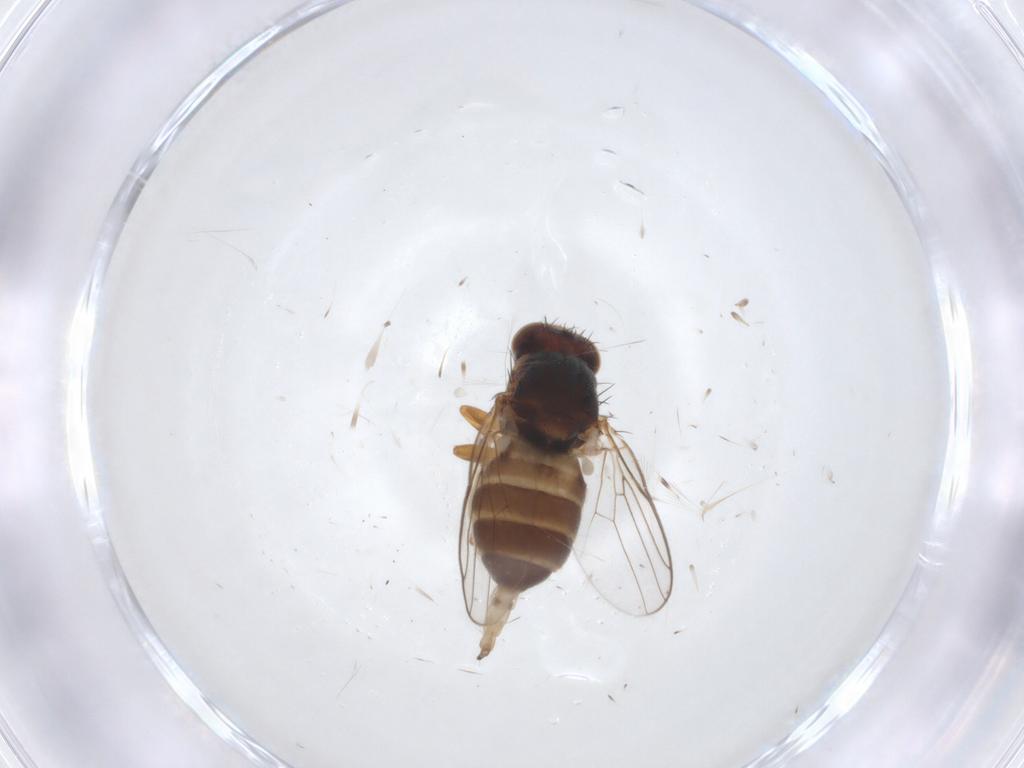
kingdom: Animalia
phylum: Arthropoda
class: Insecta
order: Diptera
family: Chloropidae
